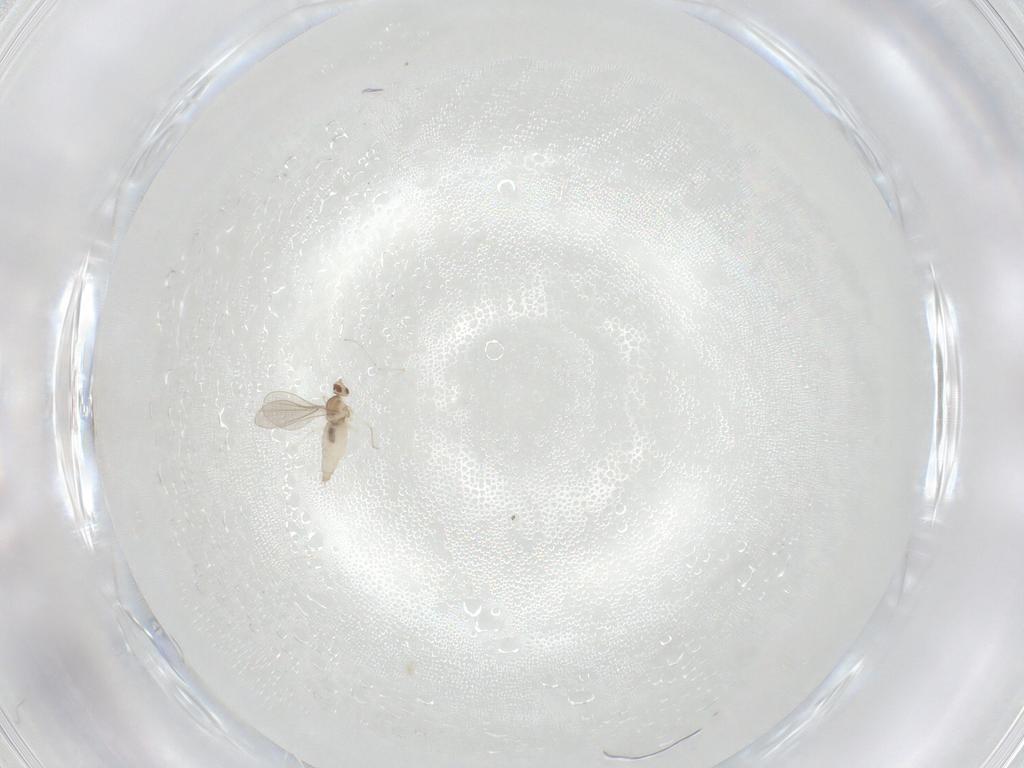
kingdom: Animalia
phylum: Arthropoda
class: Insecta
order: Diptera
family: Cecidomyiidae
